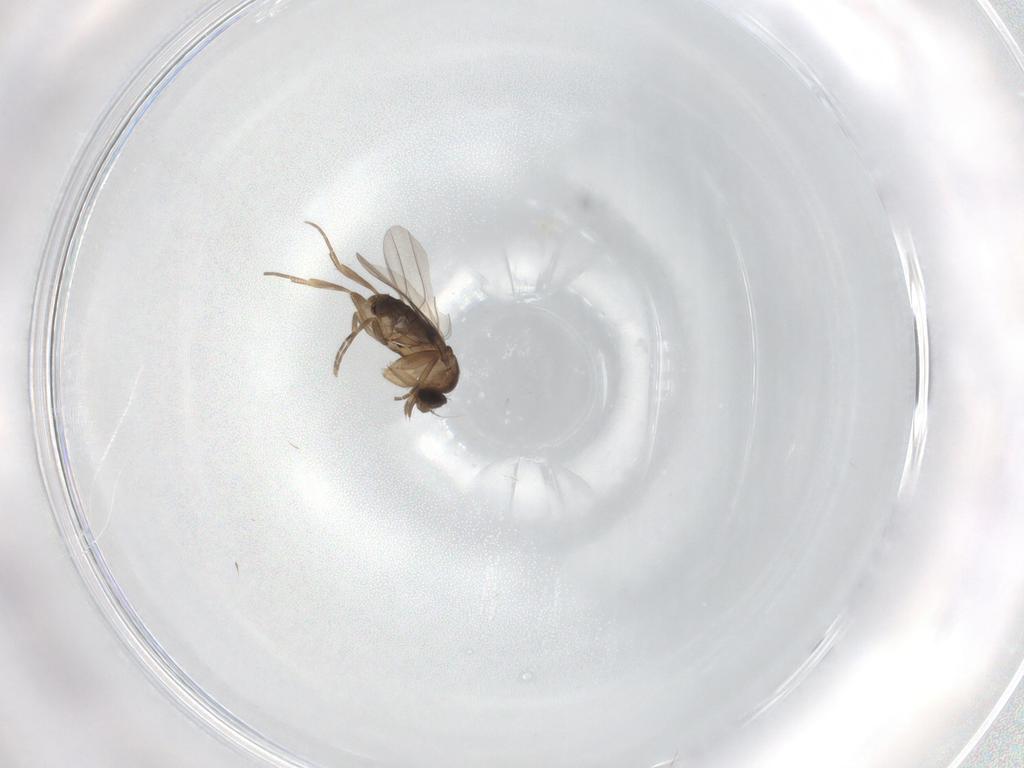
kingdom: Animalia
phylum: Arthropoda
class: Insecta
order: Diptera
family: Phoridae
